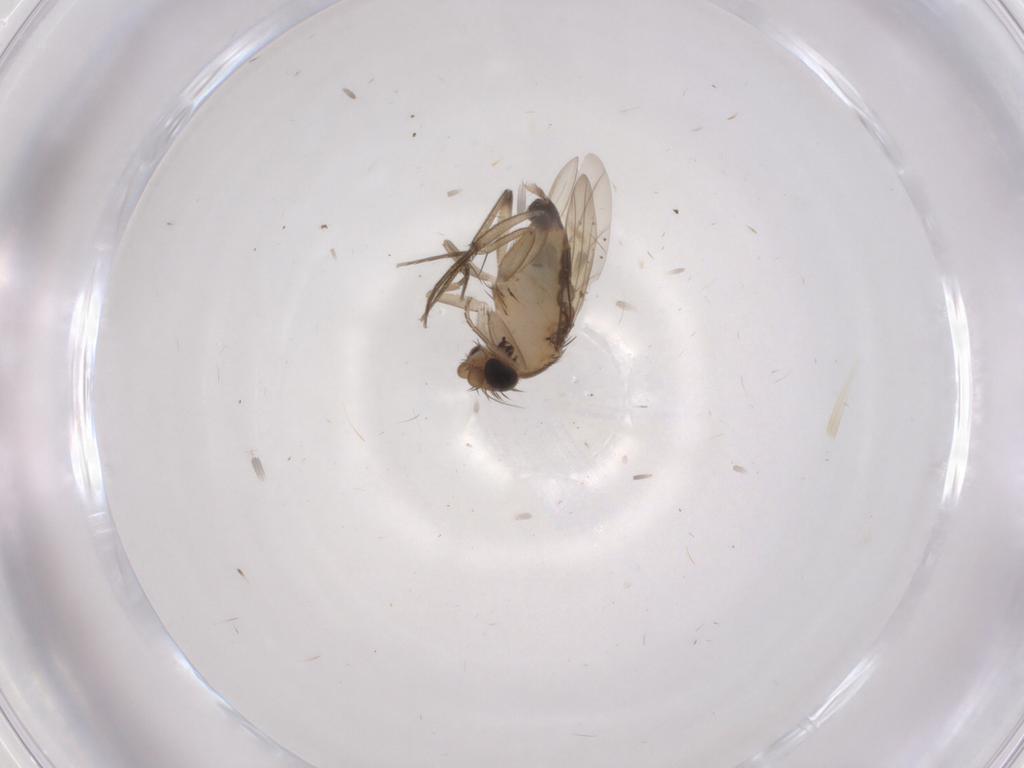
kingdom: Animalia
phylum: Arthropoda
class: Insecta
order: Diptera
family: Phoridae
